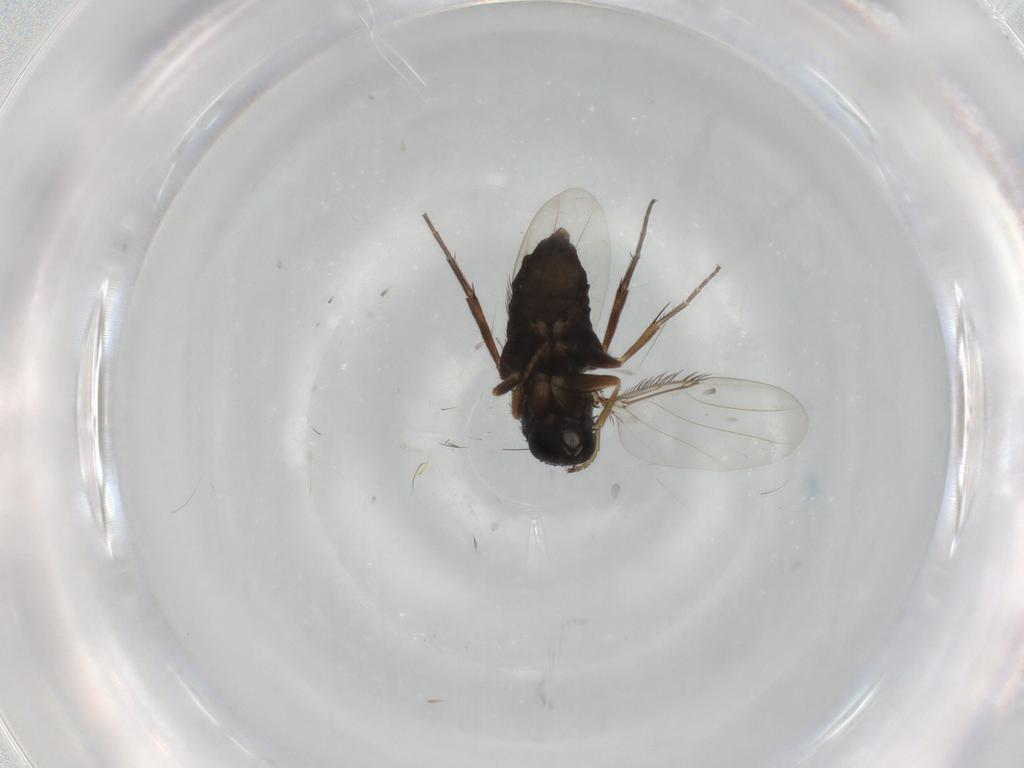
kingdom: Animalia
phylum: Arthropoda
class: Insecta
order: Diptera
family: Phoridae
